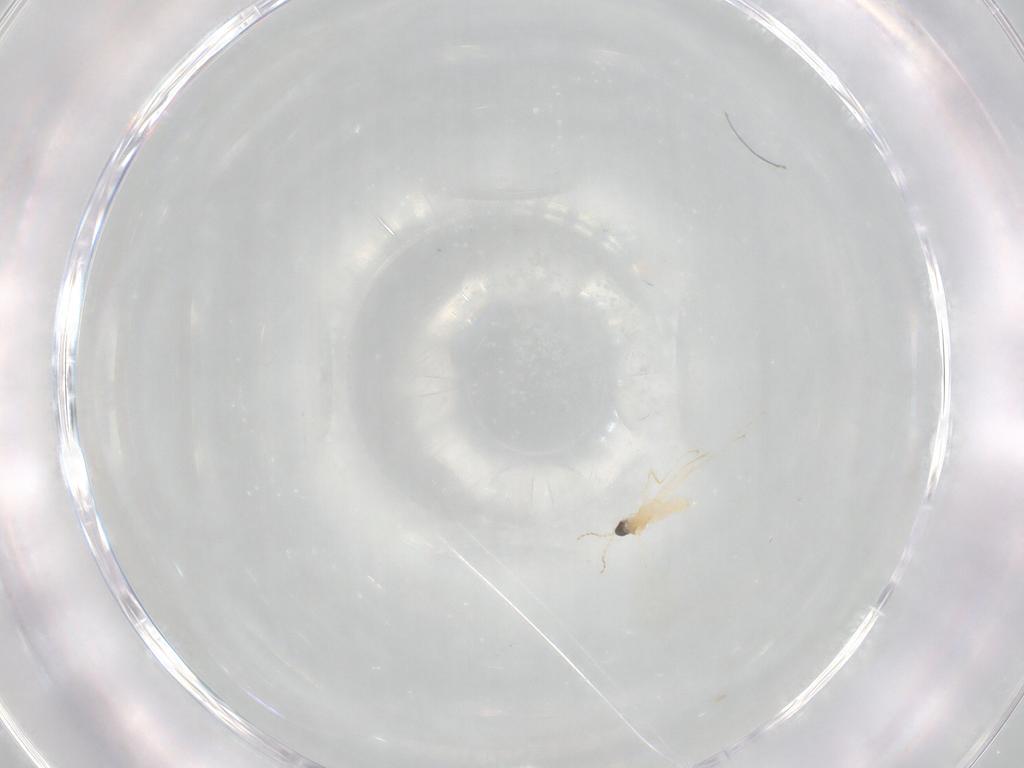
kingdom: Animalia
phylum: Arthropoda
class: Insecta
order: Diptera
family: Cecidomyiidae
